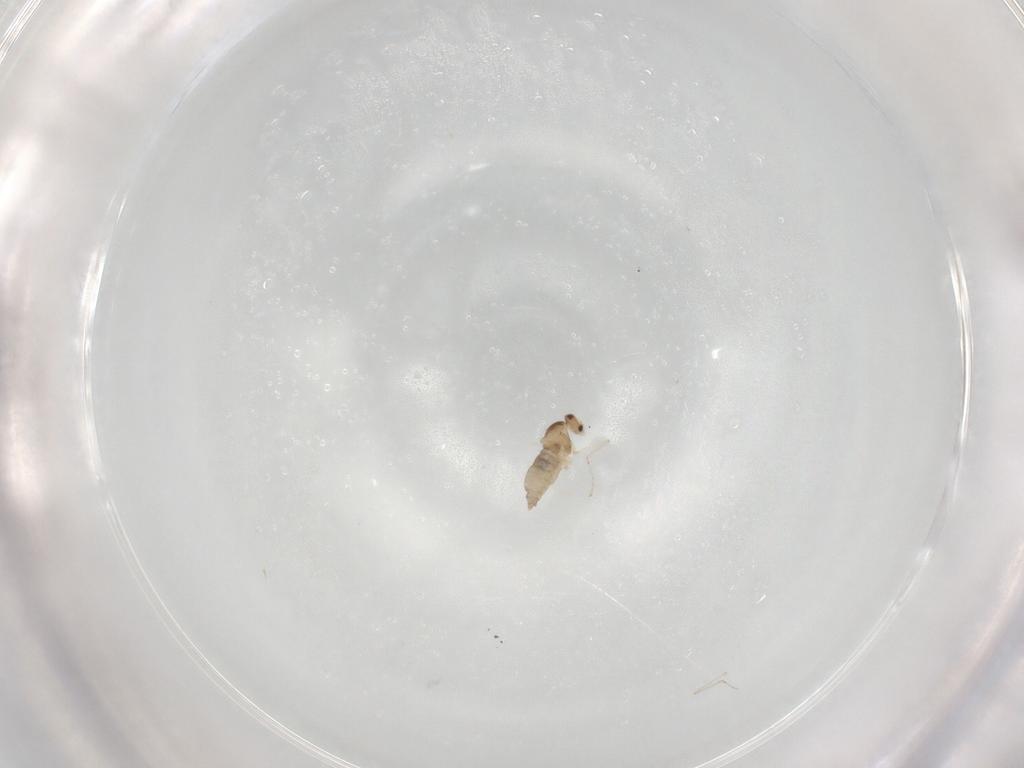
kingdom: Animalia
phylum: Arthropoda
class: Insecta
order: Diptera
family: Cecidomyiidae
